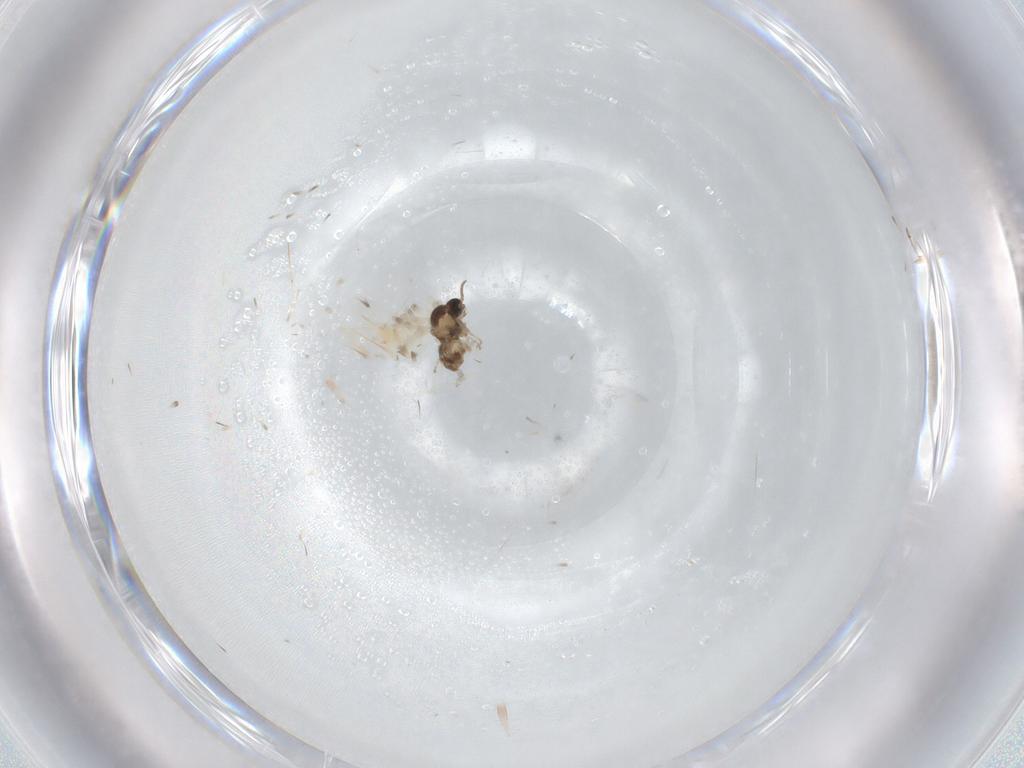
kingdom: Animalia
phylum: Arthropoda
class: Insecta
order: Diptera
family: Cecidomyiidae
